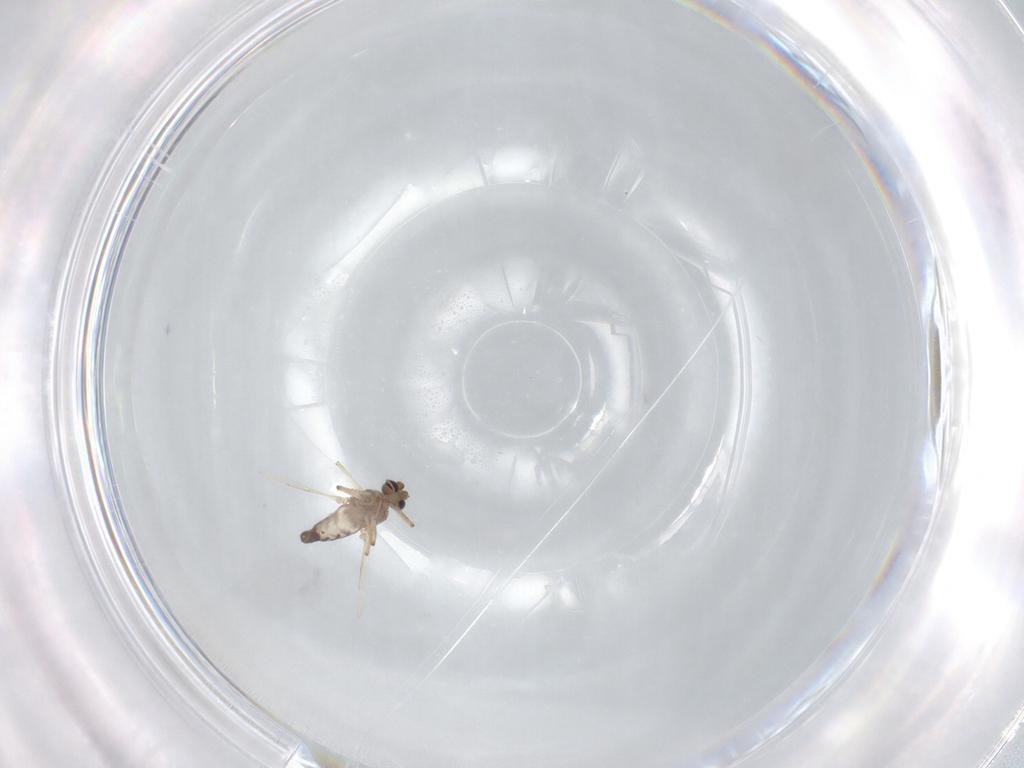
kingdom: Animalia
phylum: Arthropoda
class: Insecta
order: Diptera
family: Ceratopogonidae
